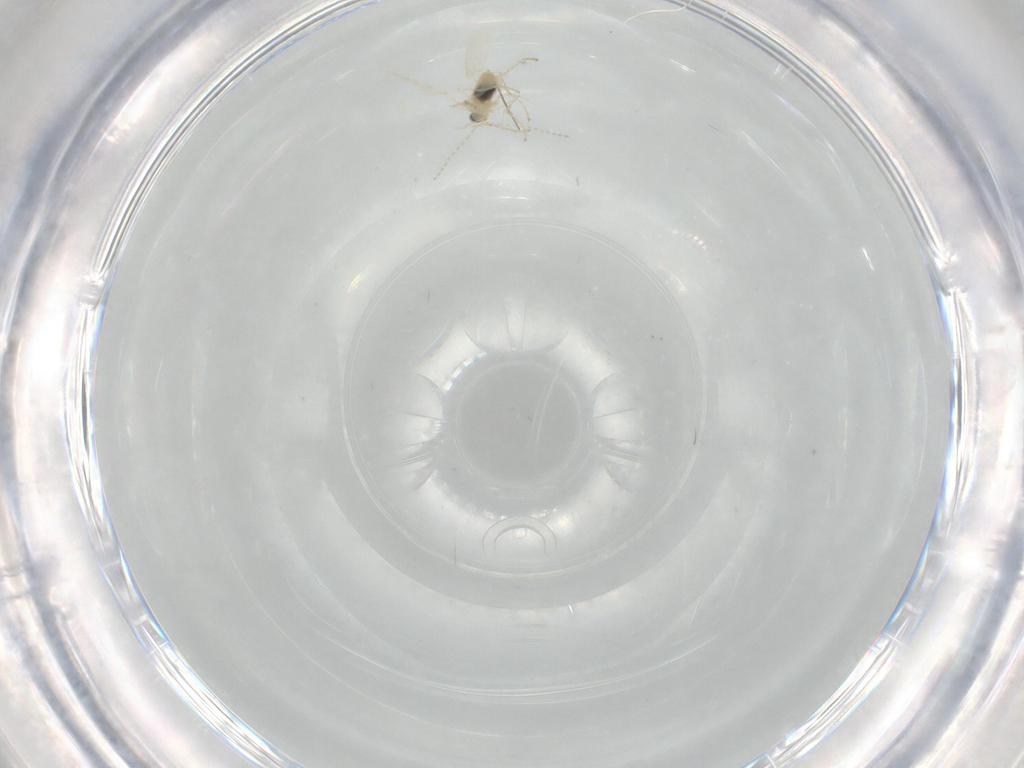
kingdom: Animalia
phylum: Arthropoda
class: Insecta
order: Diptera
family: Cecidomyiidae
